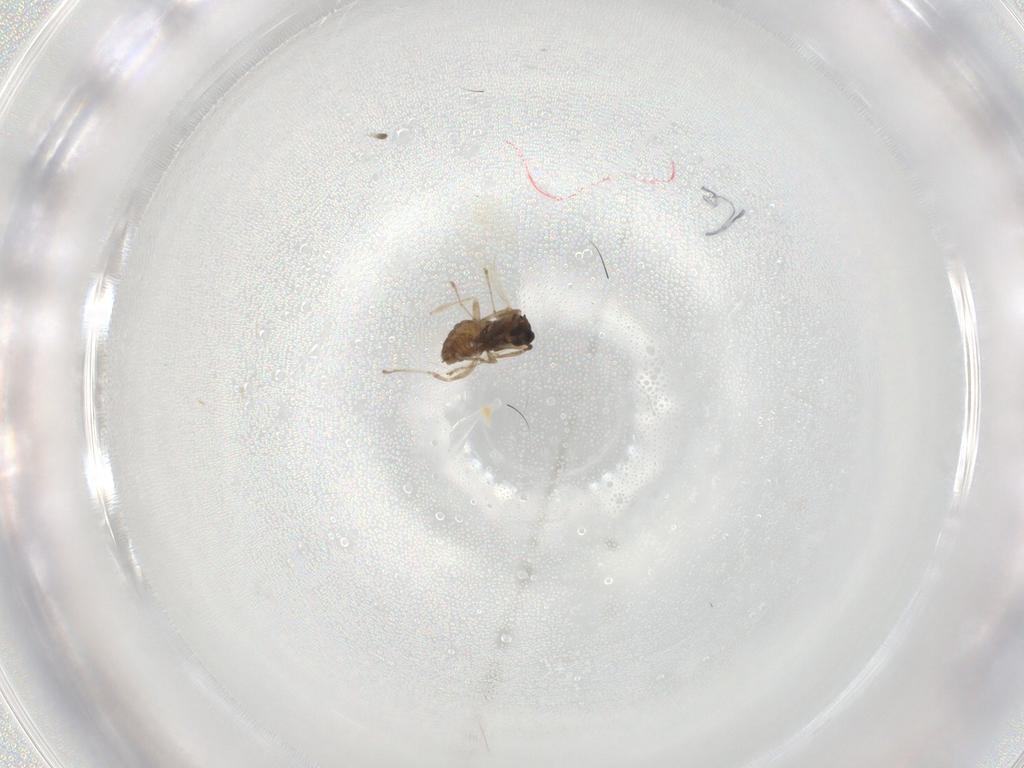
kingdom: Animalia
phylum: Arthropoda
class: Insecta
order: Diptera
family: Cecidomyiidae
